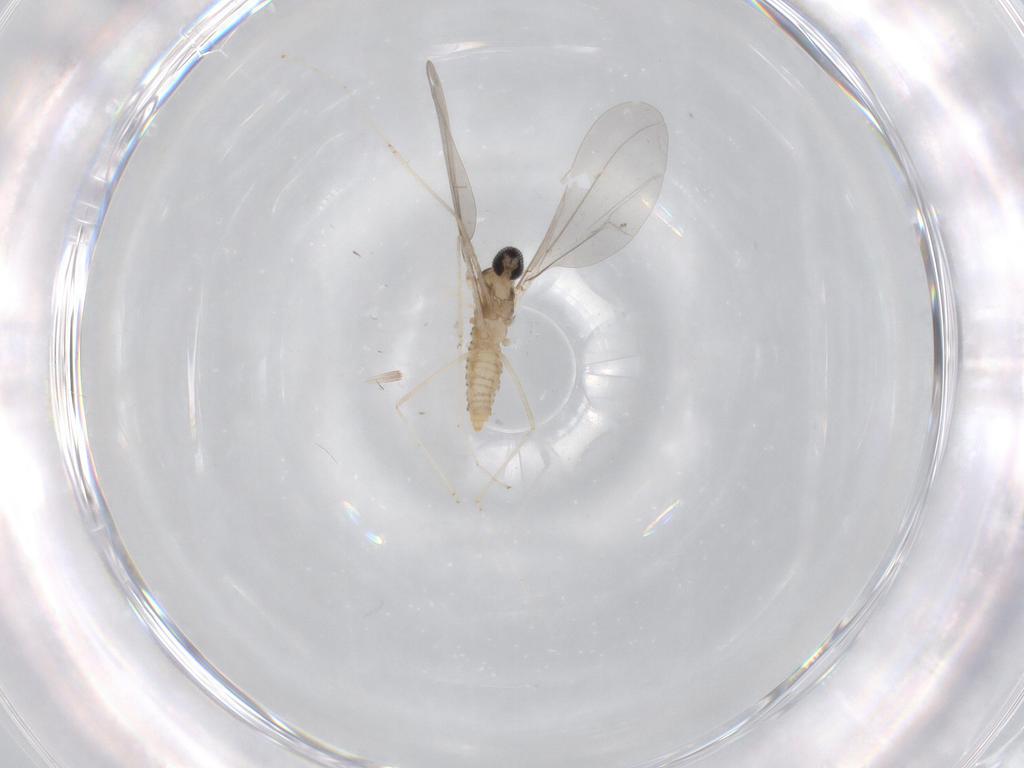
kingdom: Animalia
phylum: Arthropoda
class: Insecta
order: Diptera
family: Cecidomyiidae
